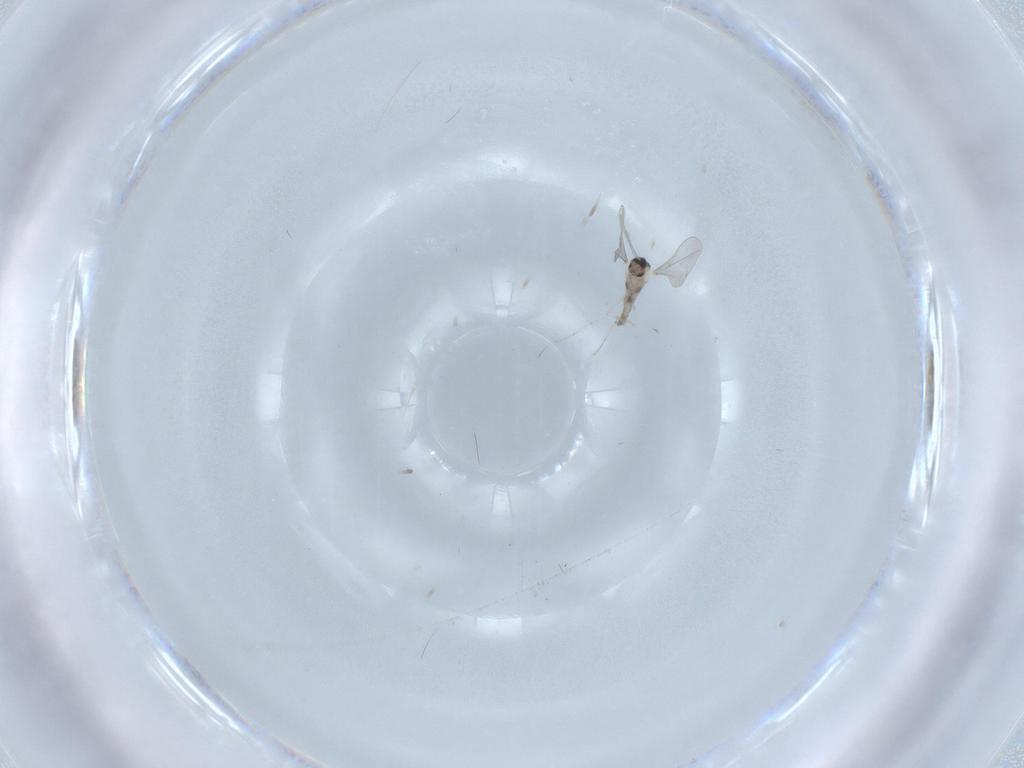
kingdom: Animalia
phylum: Arthropoda
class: Insecta
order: Diptera
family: Cecidomyiidae
